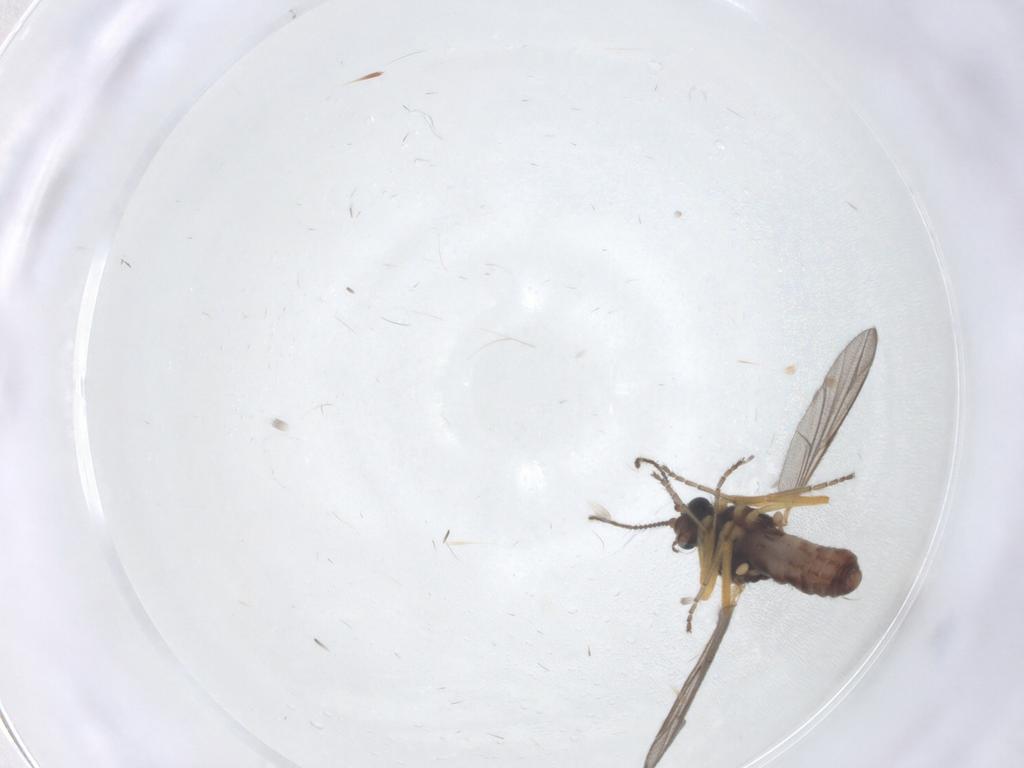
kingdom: Animalia
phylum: Arthropoda
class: Insecta
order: Diptera
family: Ceratopogonidae
